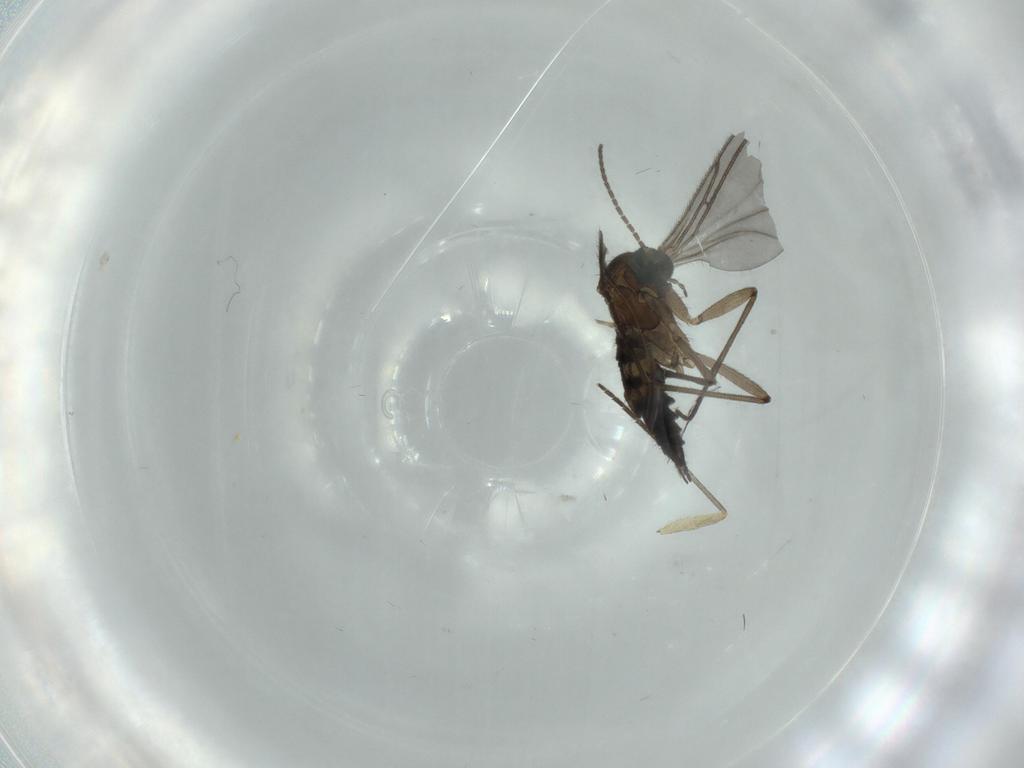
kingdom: Animalia
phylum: Arthropoda
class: Insecta
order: Diptera
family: Sciaridae
